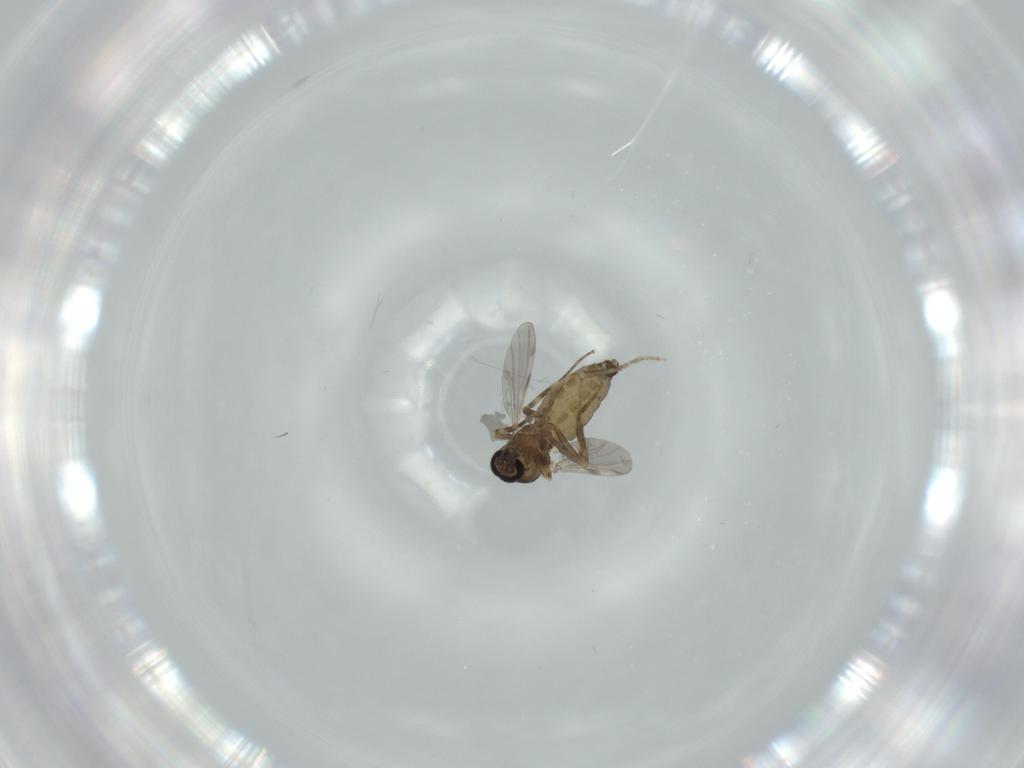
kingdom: Animalia
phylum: Arthropoda
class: Insecta
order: Diptera
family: Ceratopogonidae
